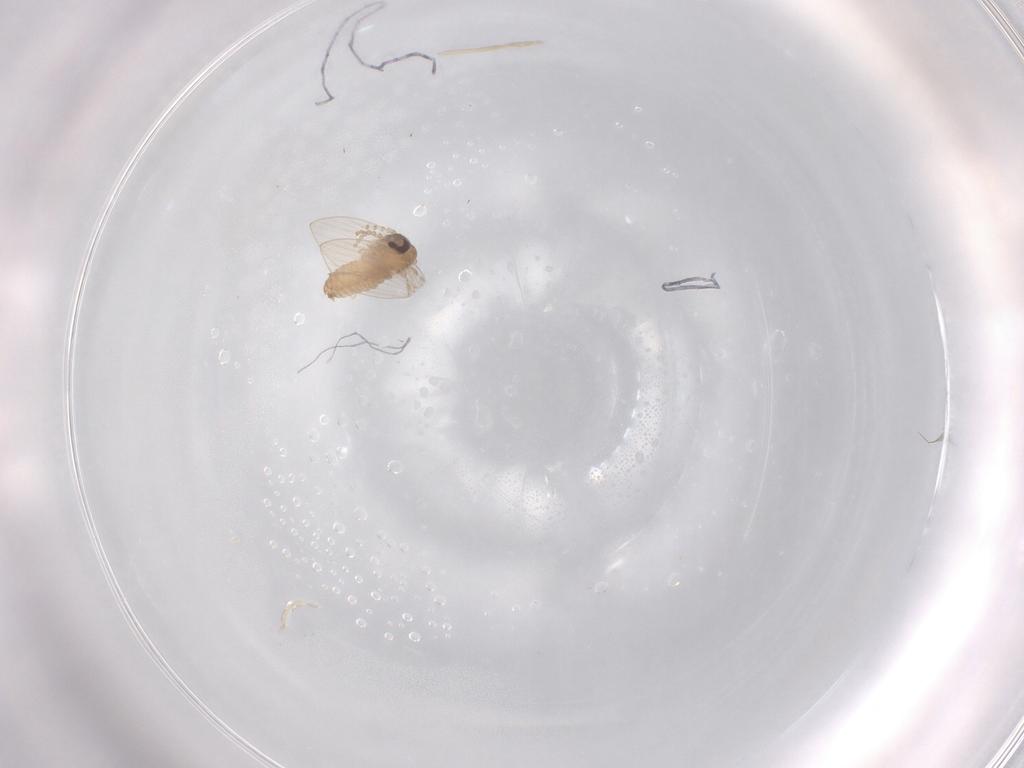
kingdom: Animalia
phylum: Arthropoda
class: Insecta
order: Diptera
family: Psychodidae
